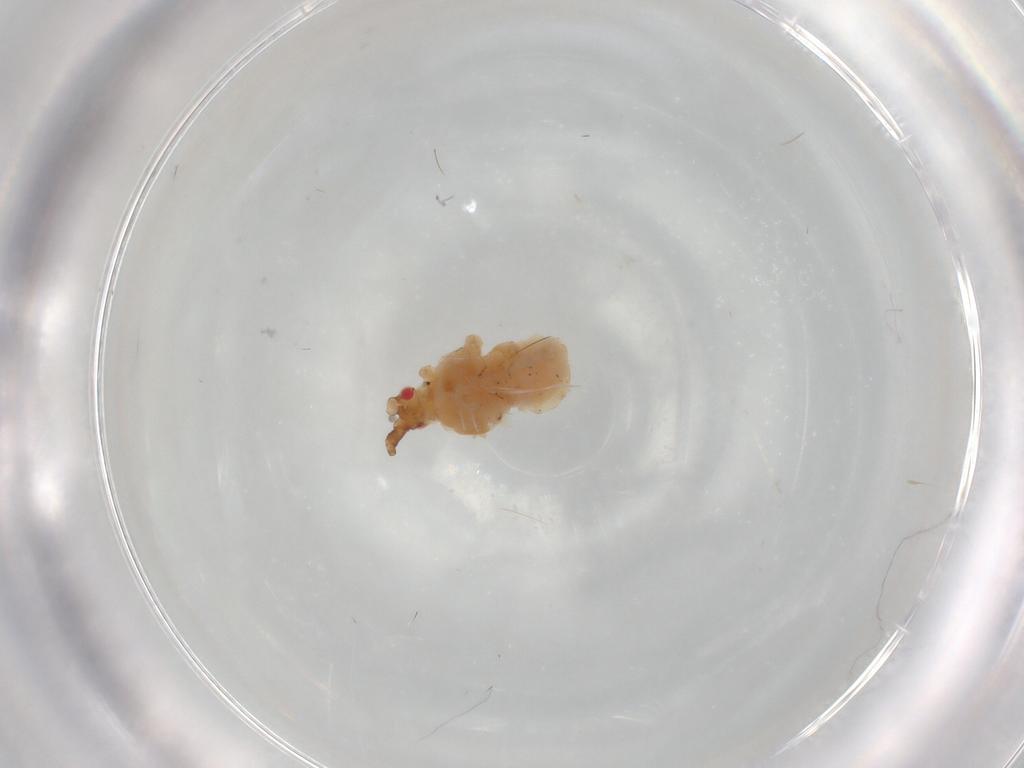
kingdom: Animalia
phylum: Arthropoda
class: Insecta
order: Hemiptera
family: Aphididae
